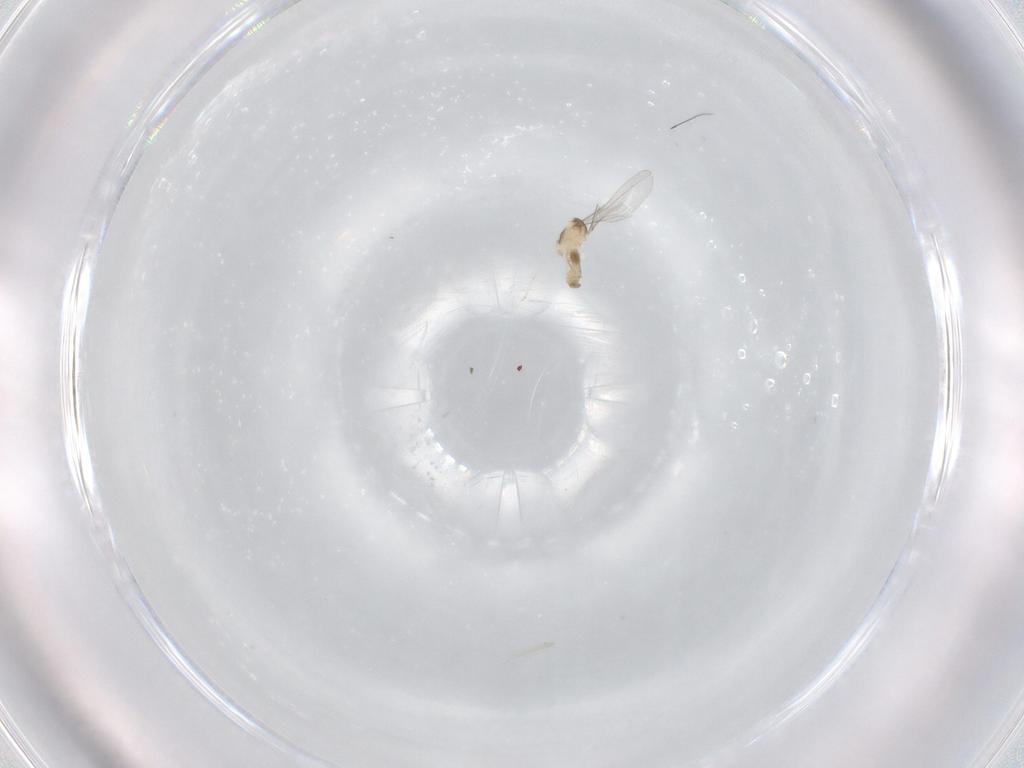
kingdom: Animalia
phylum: Arthropoda
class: Insecta
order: Diptera
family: Cecidomyiidae
